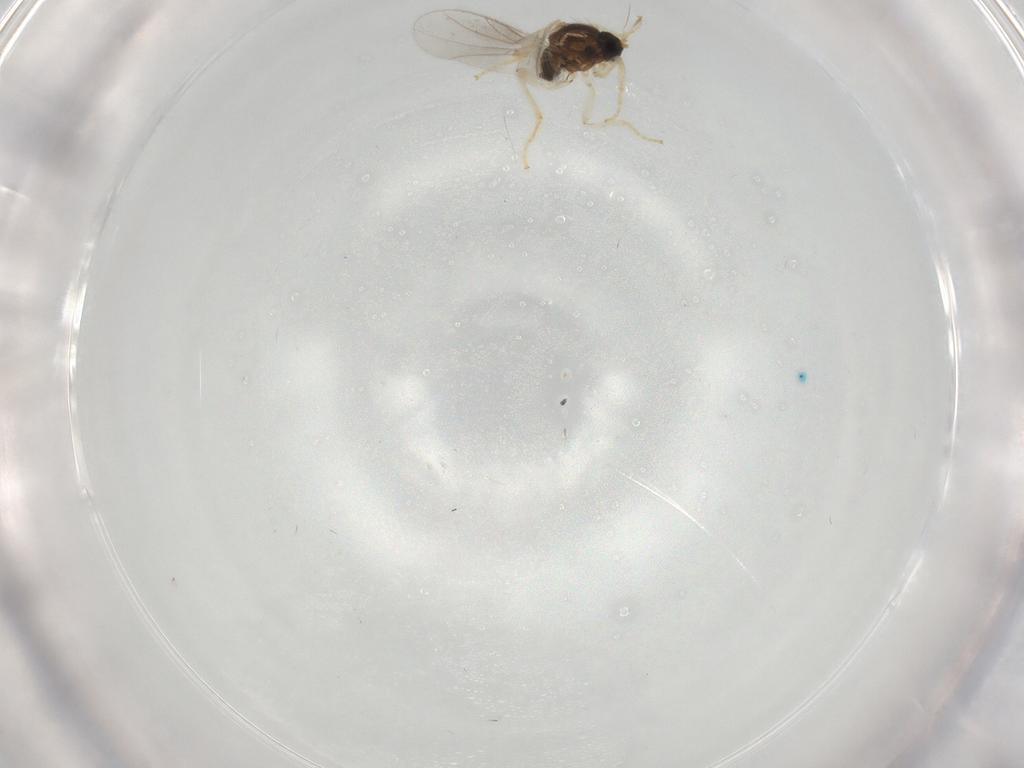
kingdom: Animalia
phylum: Arthropoda
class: Insecta
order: Diptera
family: Hybotidae
